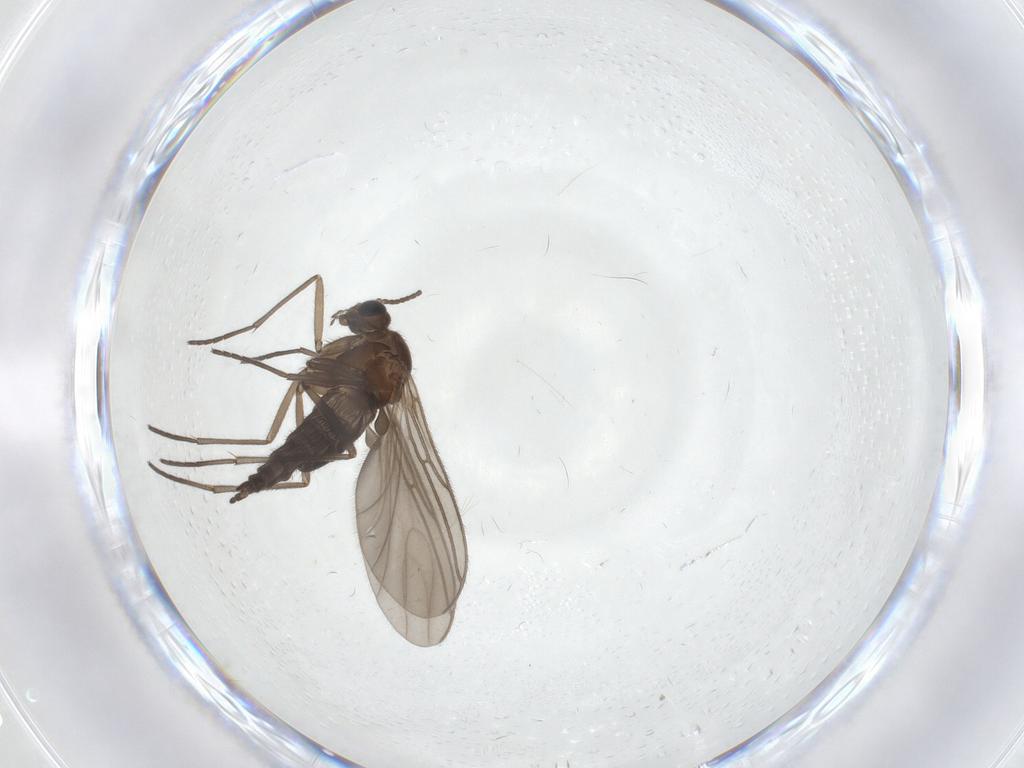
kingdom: Animalia
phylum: Arthropoda
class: Insecta
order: Diptera
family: Sciaridae
